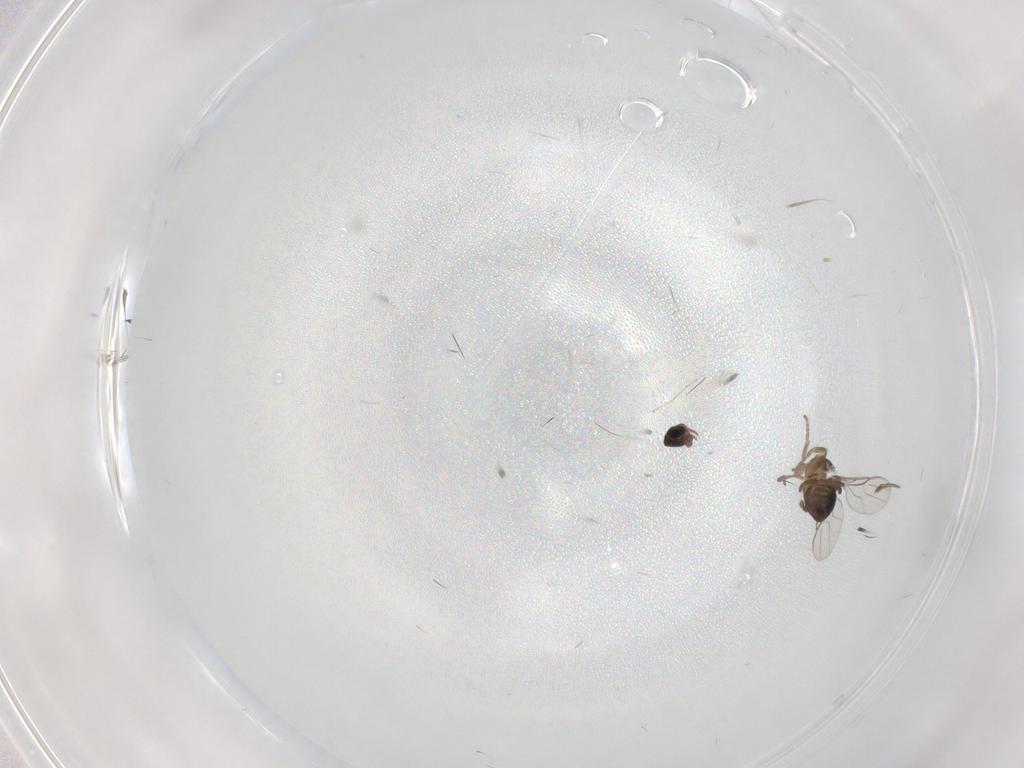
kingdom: Animalia
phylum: Arthropoda
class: Insecta
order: Diptera
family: Phoridae
